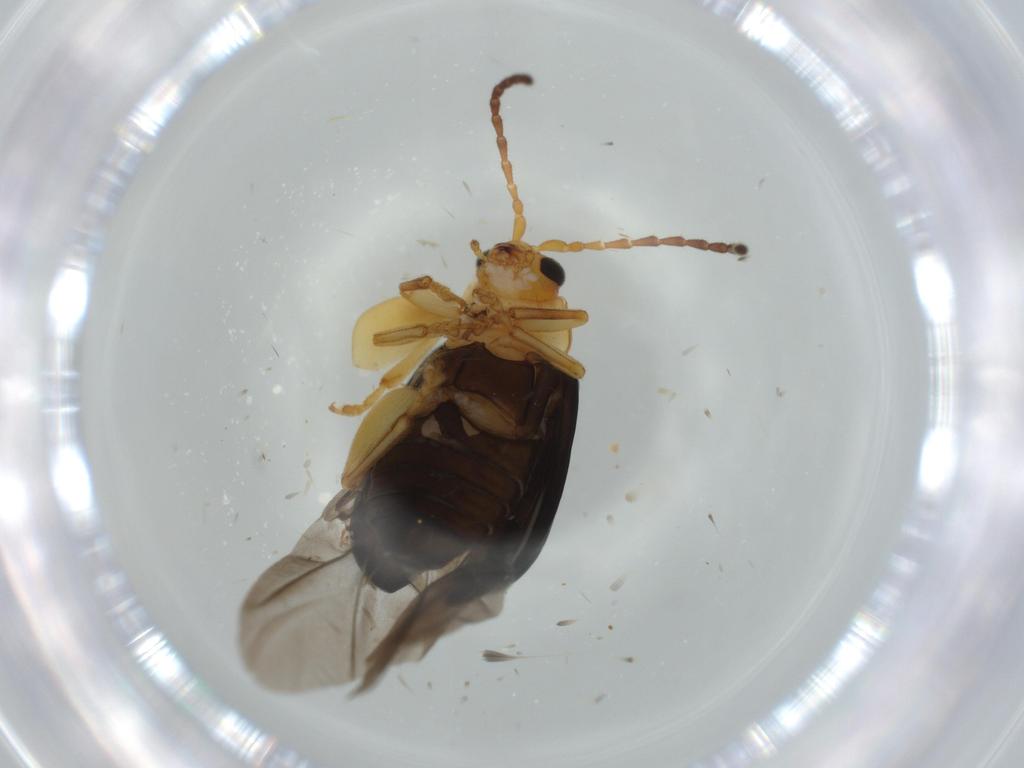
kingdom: Animalia
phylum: Arthropoda
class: Insecta
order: Coleoptera
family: Chrysomelidae
